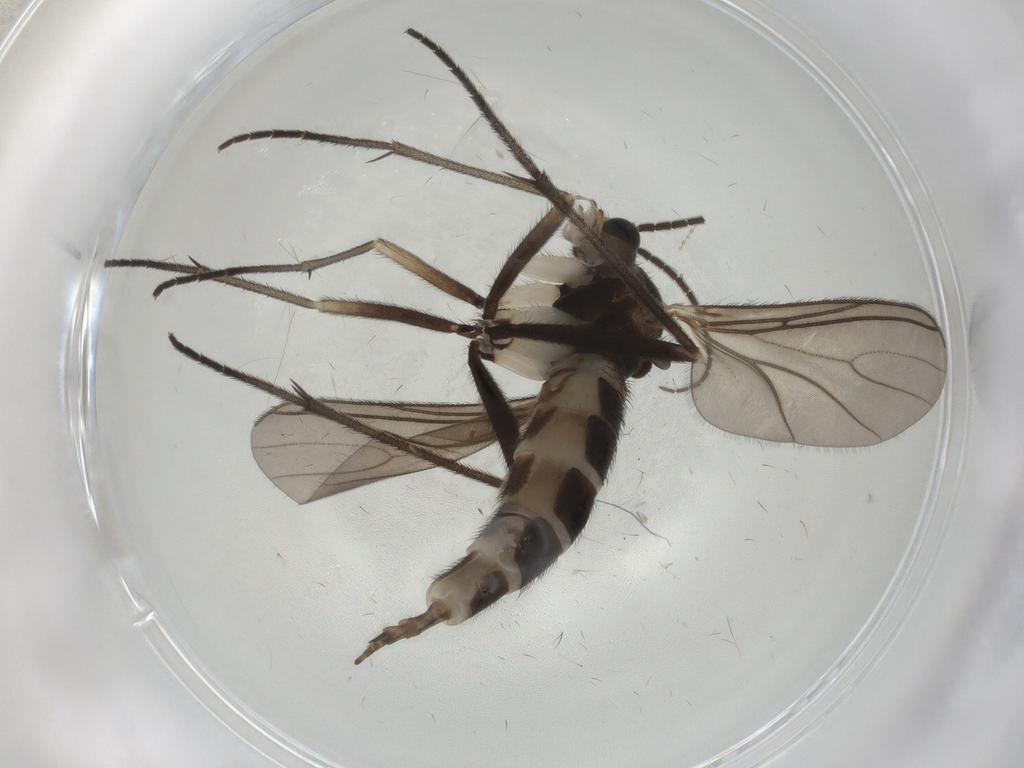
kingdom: Animalia
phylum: Arthropoda
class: Insecta
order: Diptera
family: Sciaridae
